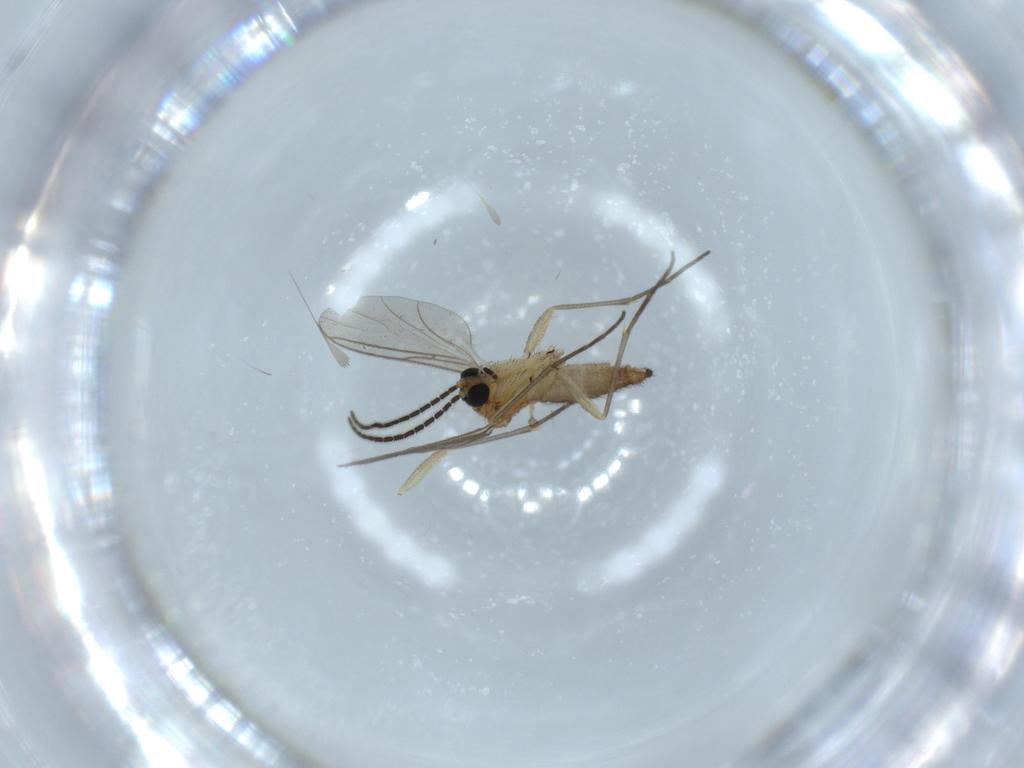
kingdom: Animalia
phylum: Arthropoda
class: Insecta
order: Diptera
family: Sciaridae
